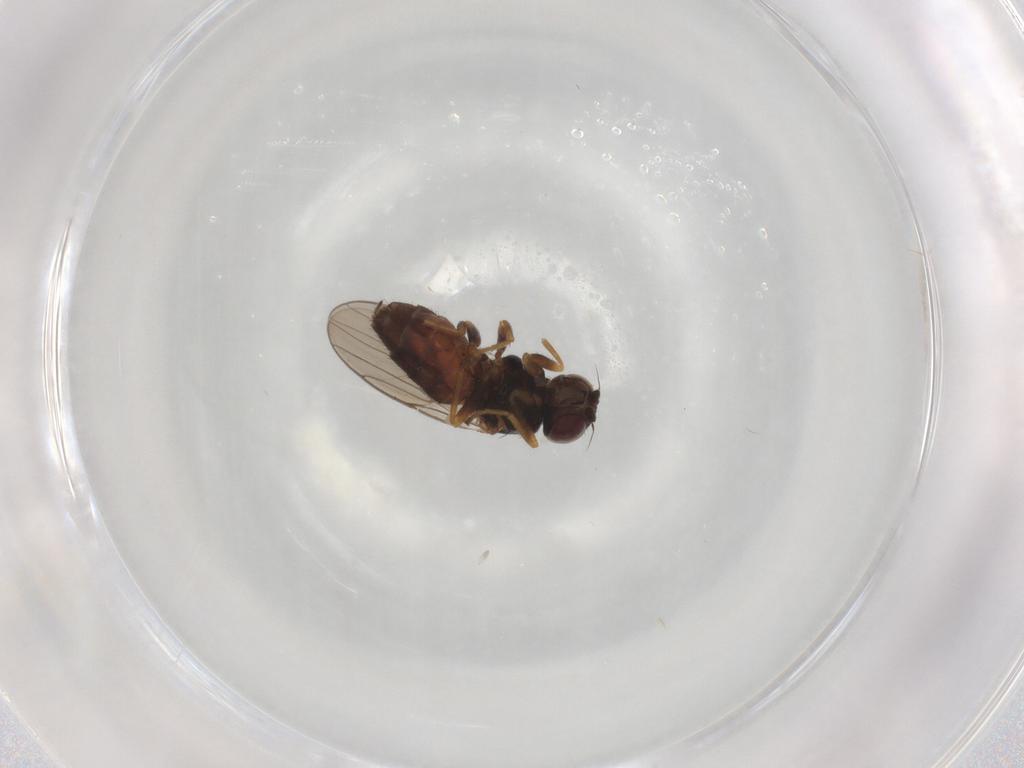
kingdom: Animalia
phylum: Arthropoda
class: Insecta
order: Diptera
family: Chloropidae
